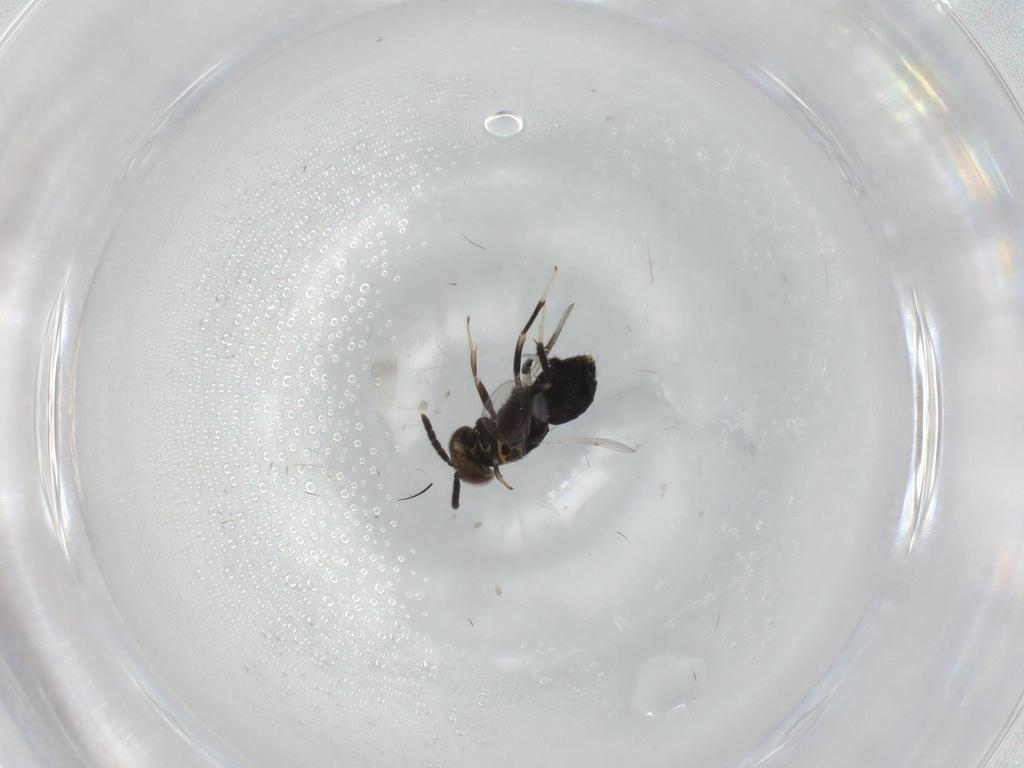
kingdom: Animalia
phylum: Arthropoda
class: Insecta
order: Hymenoptera
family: Aphelinidae
